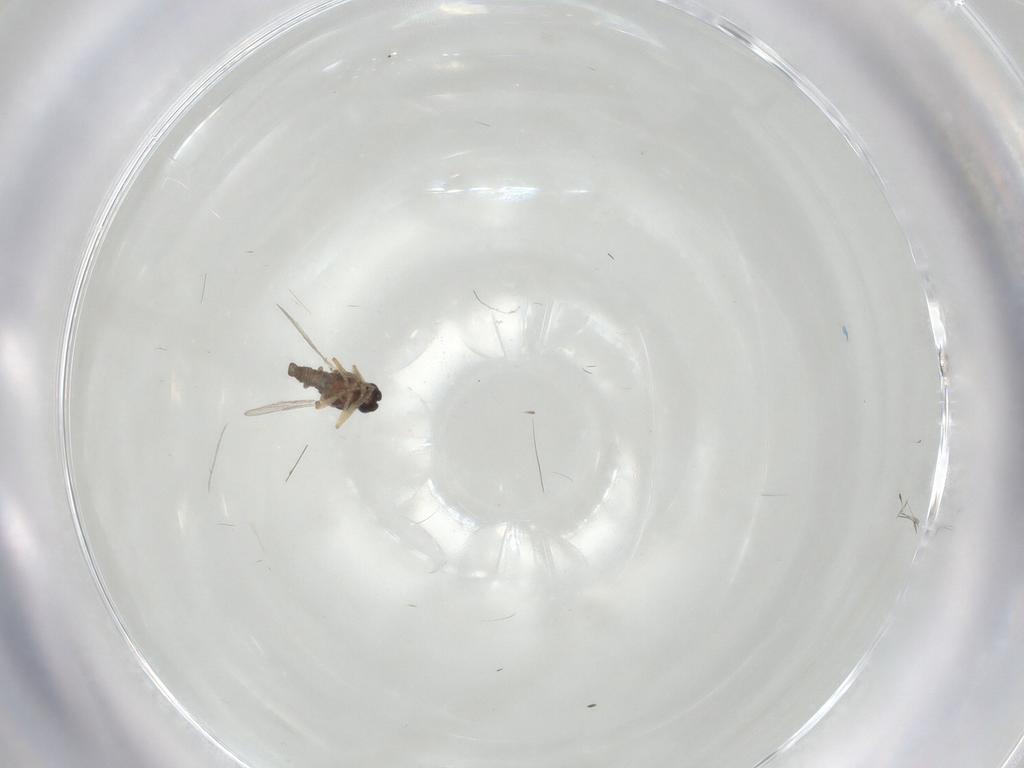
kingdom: Animalia
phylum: Arthropoda
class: Insecta
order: Diptera
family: Ceratopogonidae
